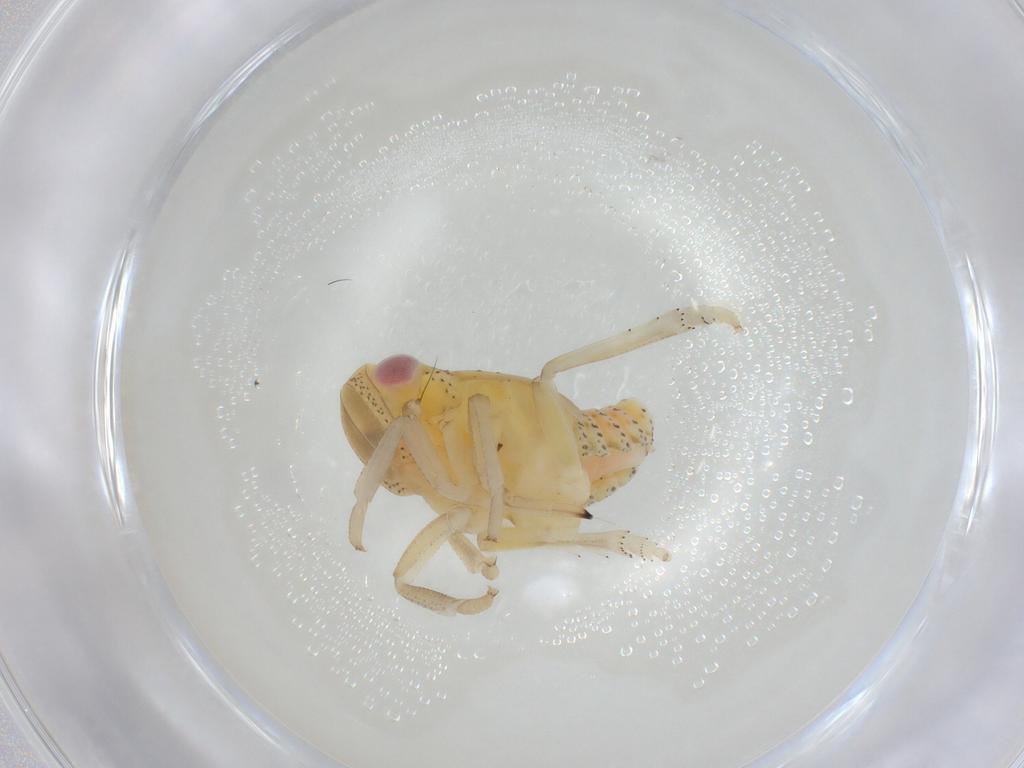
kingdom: Animalia
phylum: Arthropoda
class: Insecta
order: Hemiptera
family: Tropiduchidae
